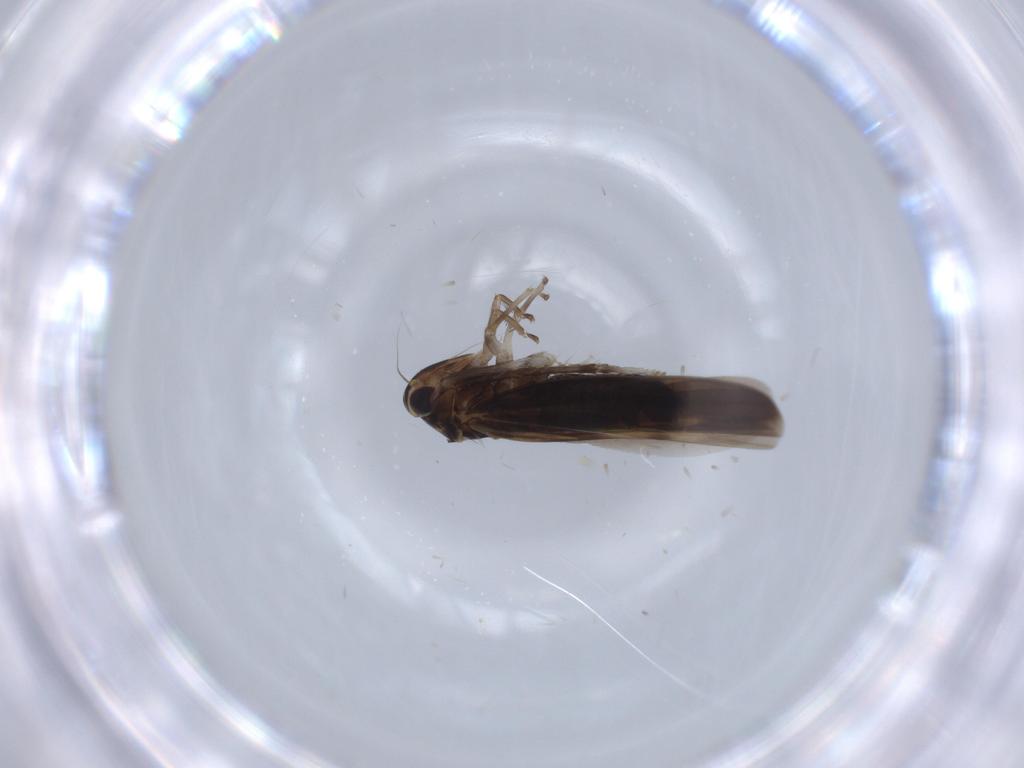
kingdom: Animalia
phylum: Arthropoda
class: Insecta
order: Hemiptera
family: Cicadellidae
